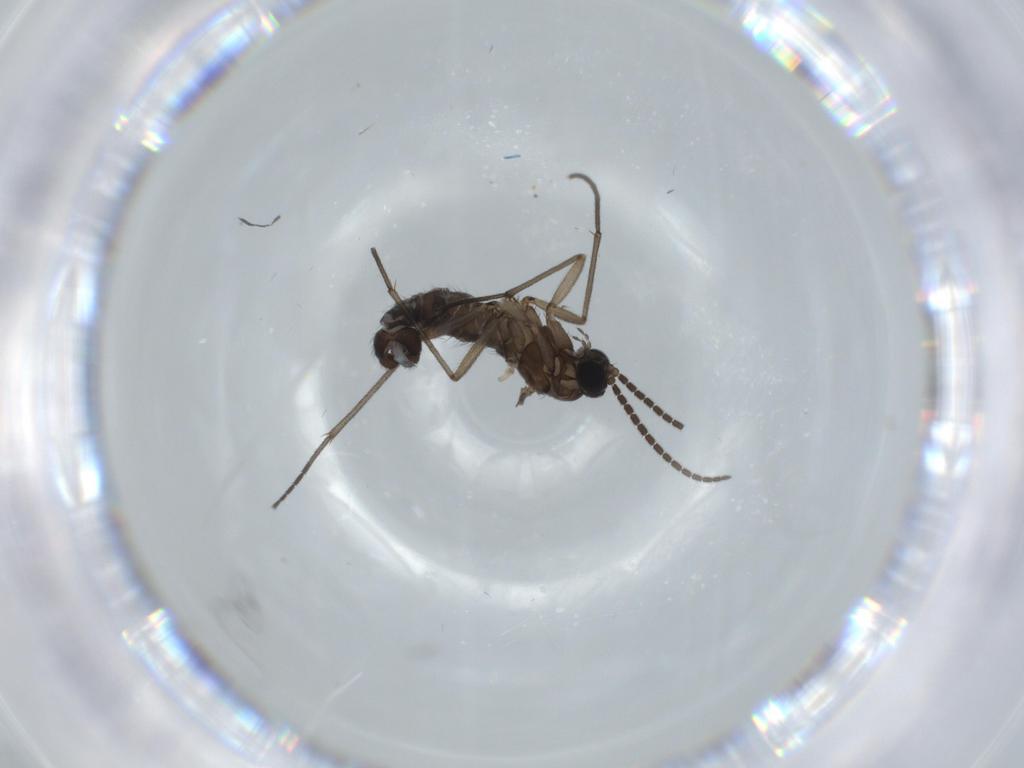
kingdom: Animalia
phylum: Arthropoda
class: Insecta
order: Diptera
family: Sciaridae
